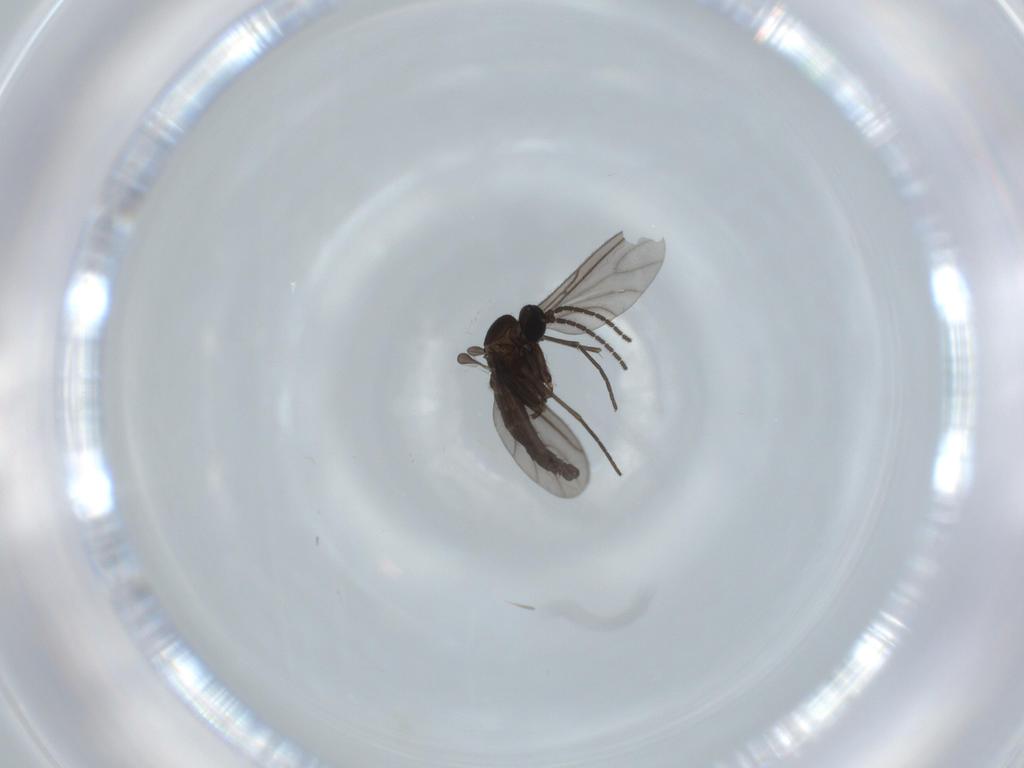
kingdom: Animalia
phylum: Arthropoda
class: Insecta
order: Diptera
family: Sciaridae
